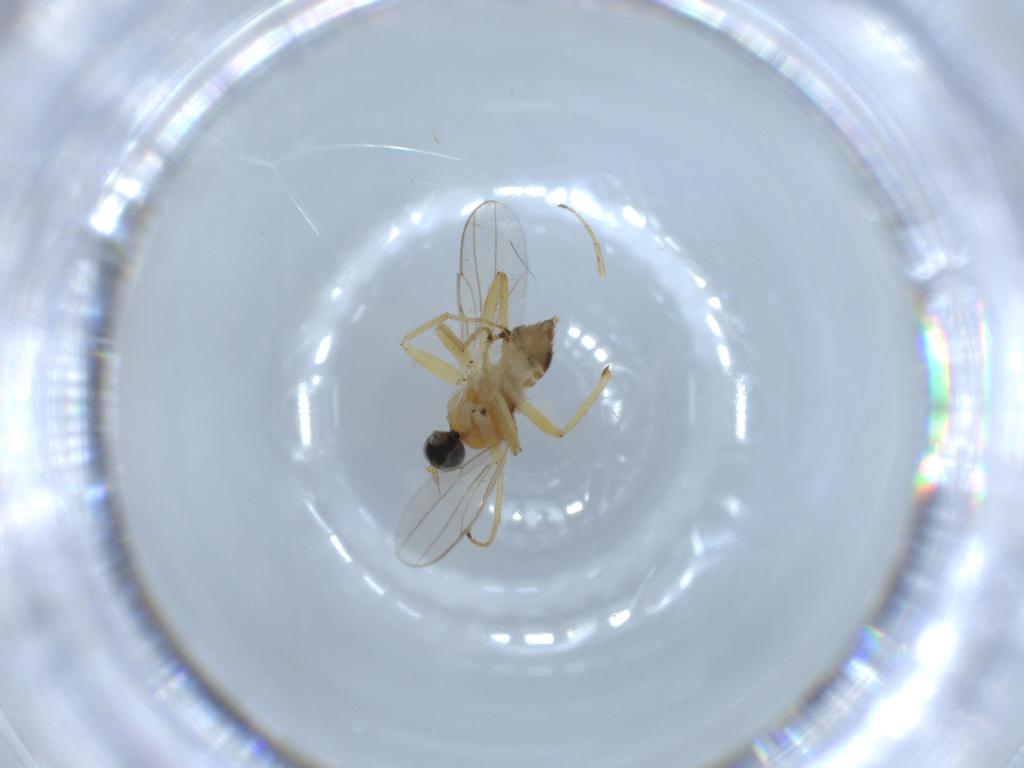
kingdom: Animalia
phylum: Arthropoda
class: Insecta
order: Diptera
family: Hybotidae
